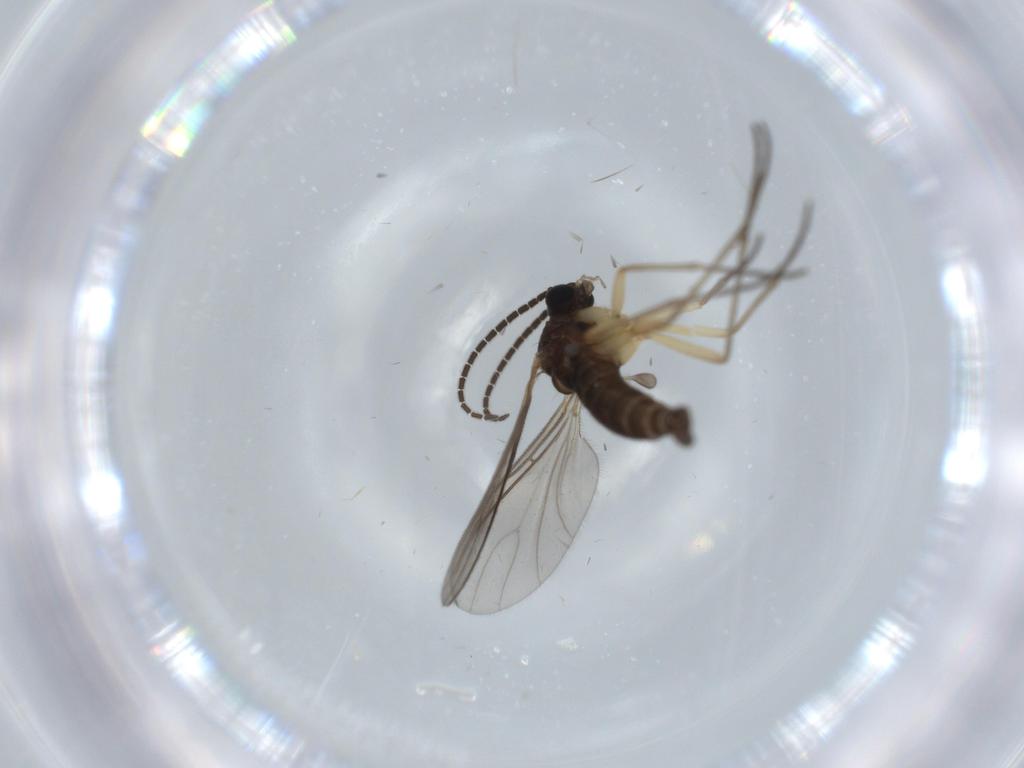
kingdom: Animalia
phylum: Arthropoda
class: Insecta
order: Diptera
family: Sciaridae
